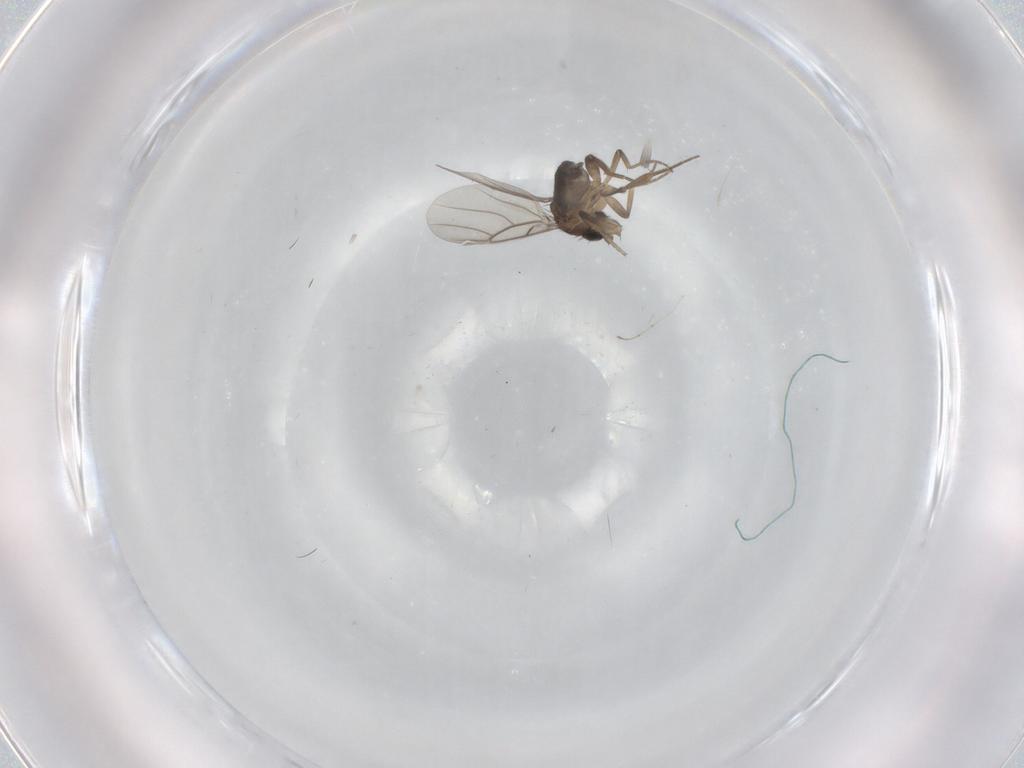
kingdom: Animalia
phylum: Arthropoda
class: Insecta
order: Diptera
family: Phoridae
